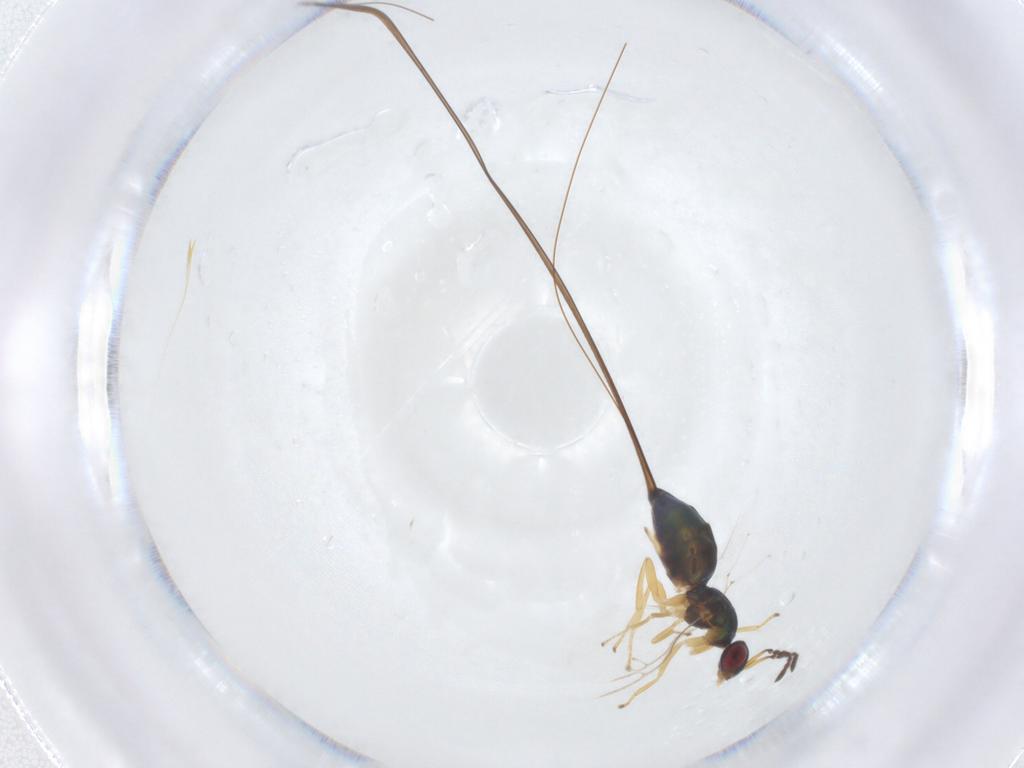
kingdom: Animalia
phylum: Arthropoda
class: Insecta
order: Hymenoptera
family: Pteromalidae
